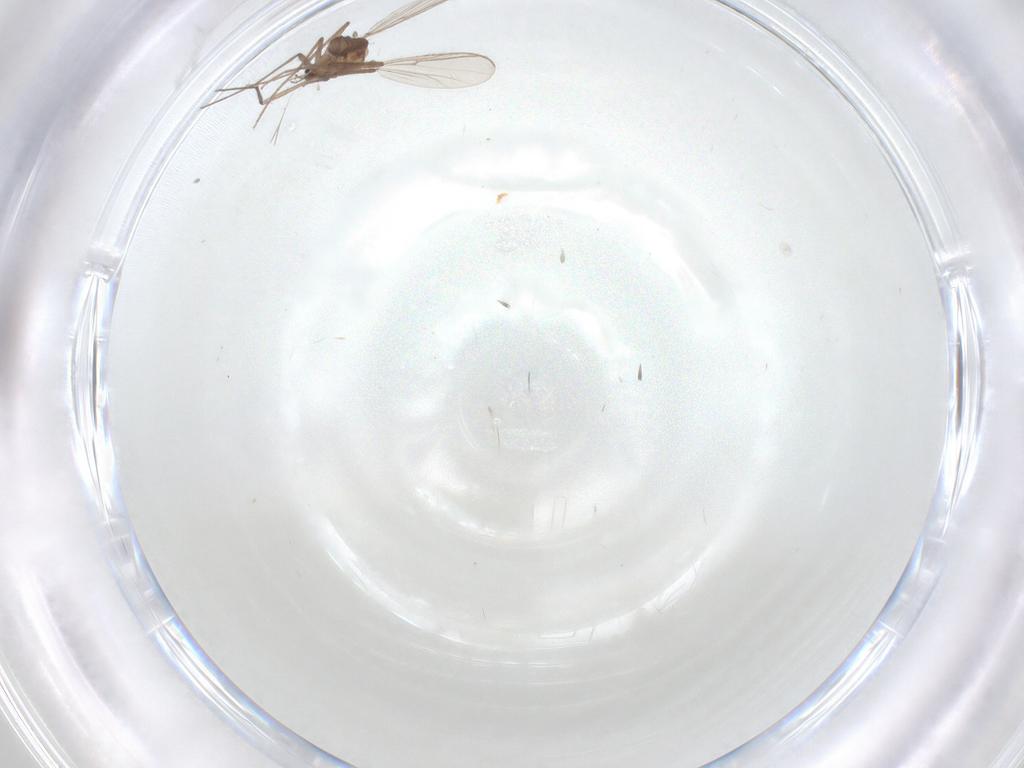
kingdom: Animalia
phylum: Arthropoda
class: Insecta
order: Diptera
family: Chironomidae
